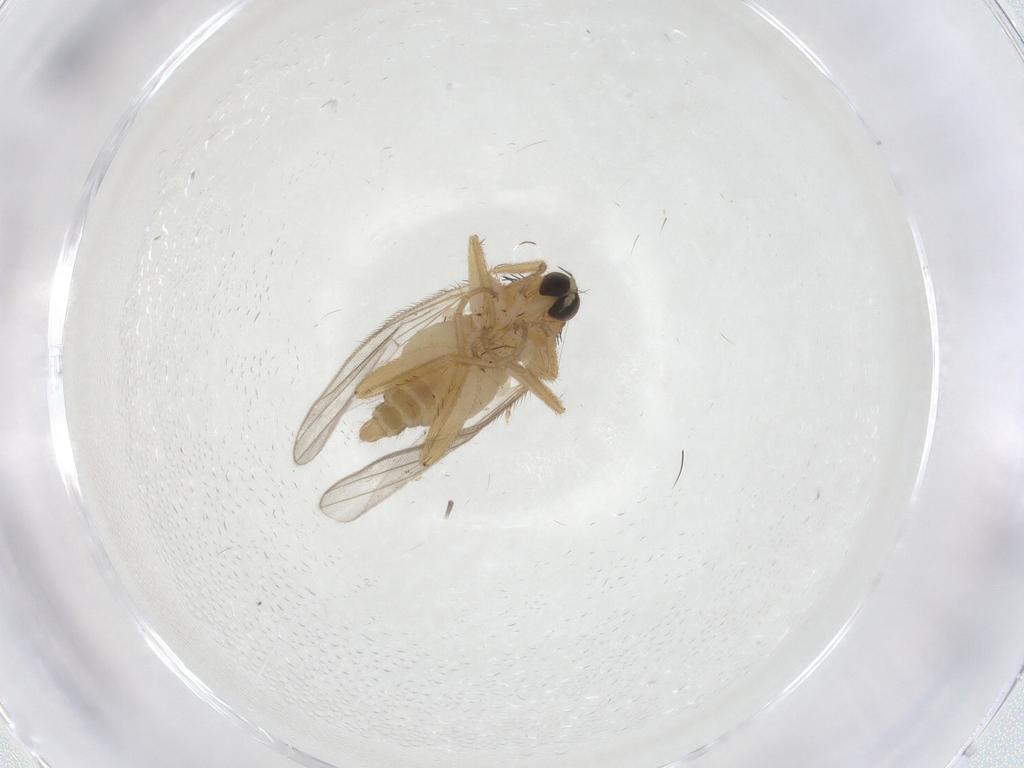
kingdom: Animalia
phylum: Arthropoda
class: Insecta
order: Diptera
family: Hybotidae
